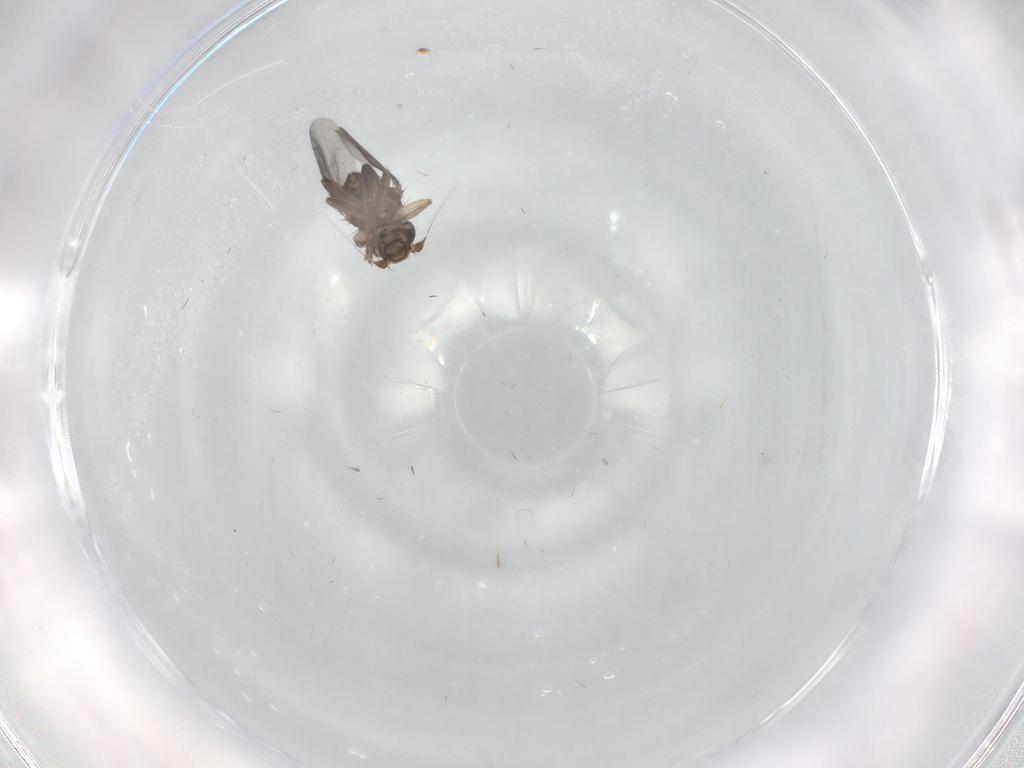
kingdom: Animalia
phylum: Arthropoda
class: Insecta
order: Diptera
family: Sphaeroceridae
